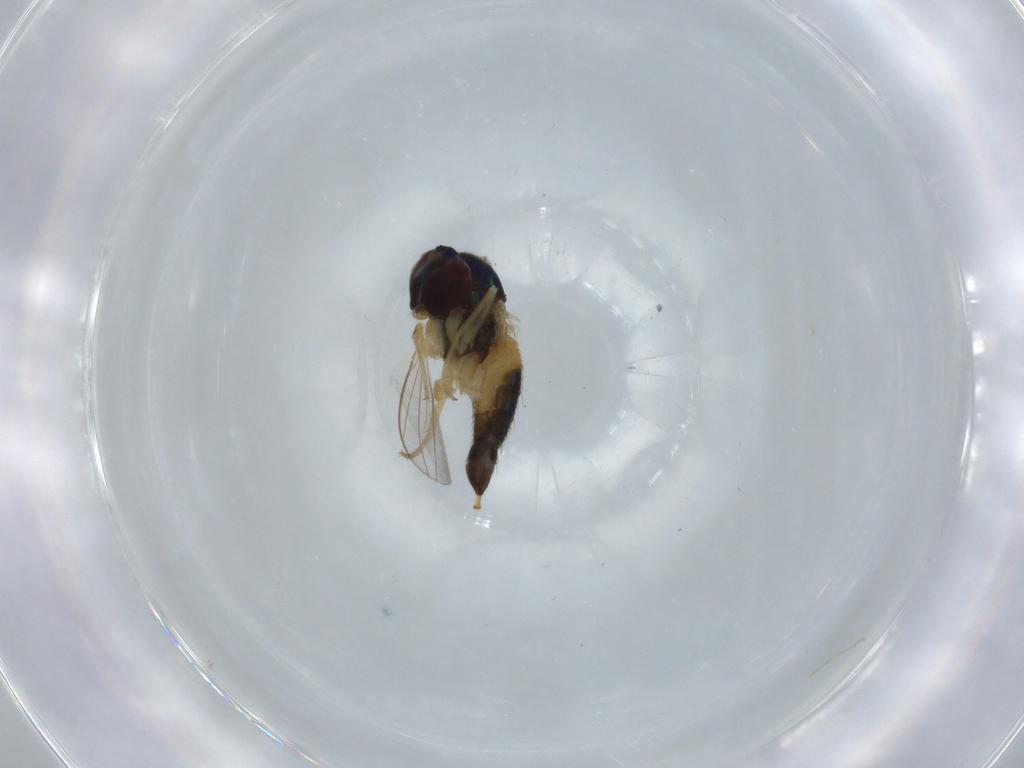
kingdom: Animalia
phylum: Arthropoda
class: Insecta
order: Diptera
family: Dolichopodidae
